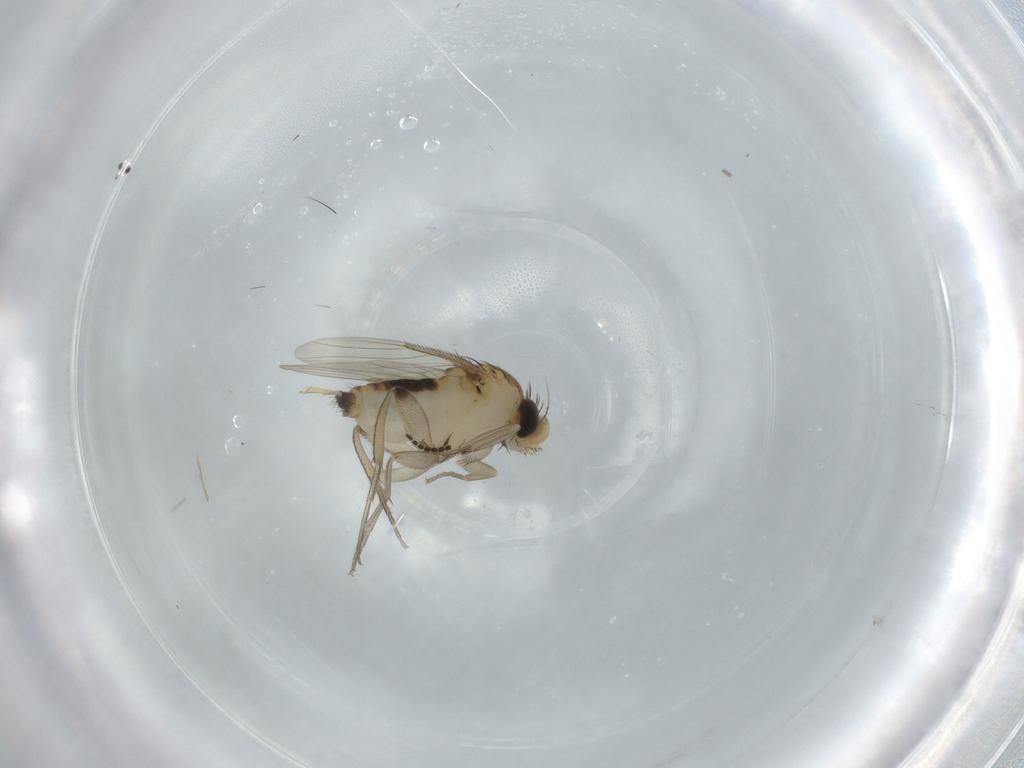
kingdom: Animalia
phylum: Arthropoda
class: Insecta
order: Diptera
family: Phoridae
